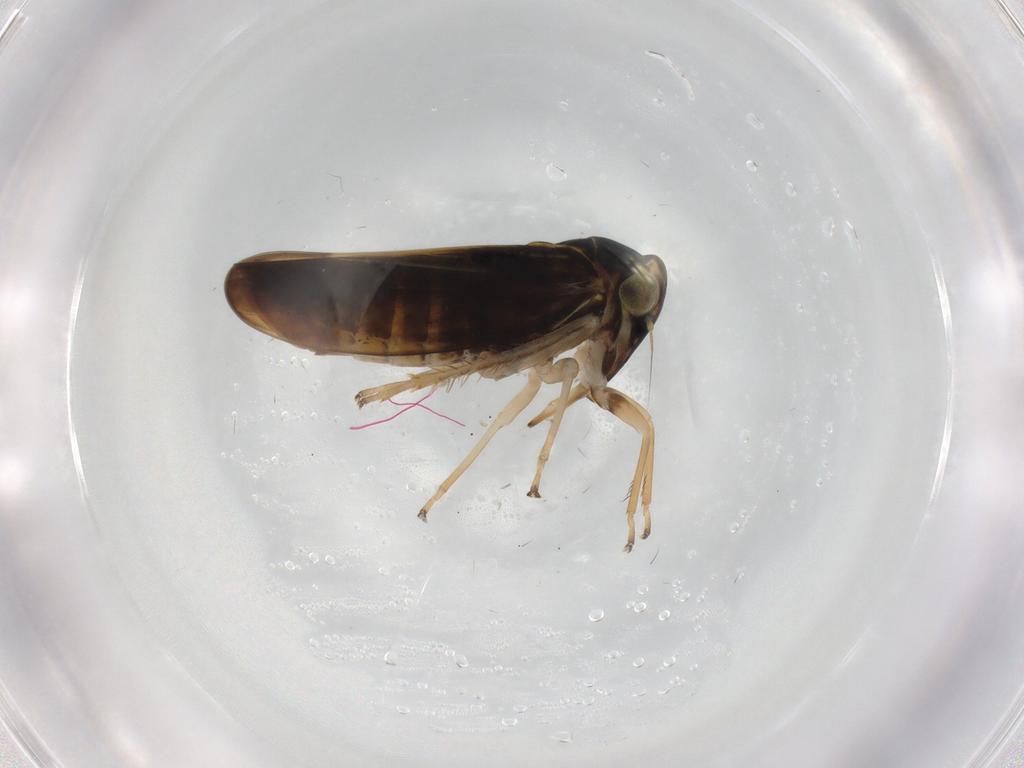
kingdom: Animalia
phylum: Arthropoda
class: Insecta
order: Hemiptera
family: Cicadellidae
